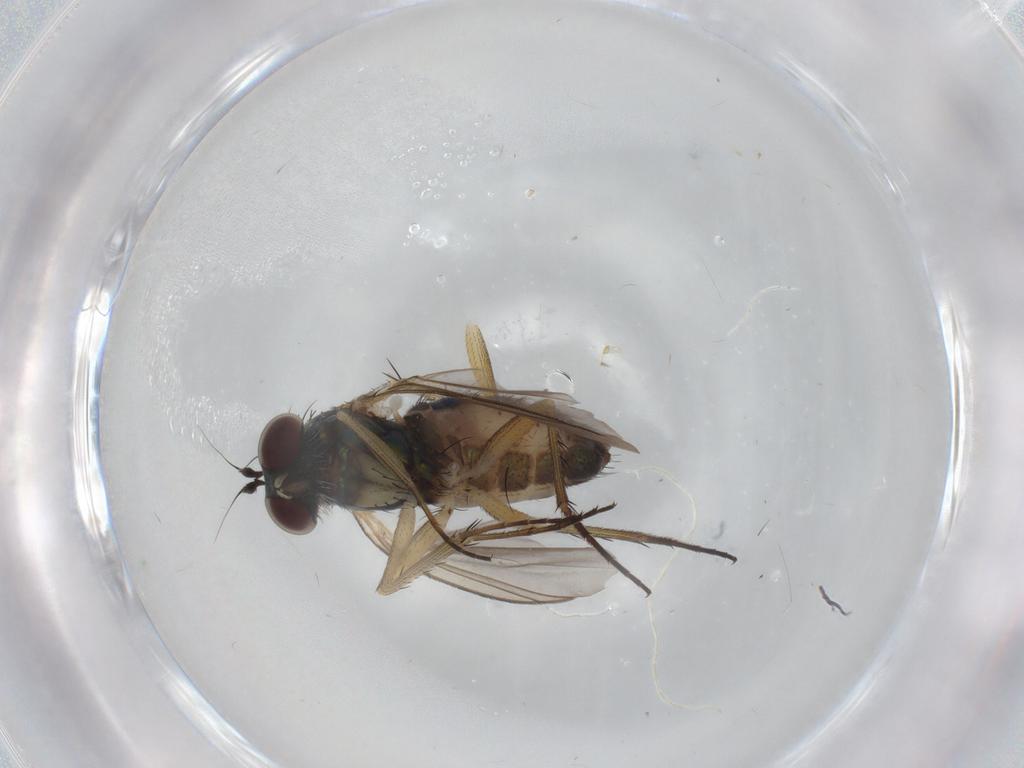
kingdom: Animalia
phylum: Arthropoda
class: Insecta
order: Diptera
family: Dolichopodidae
